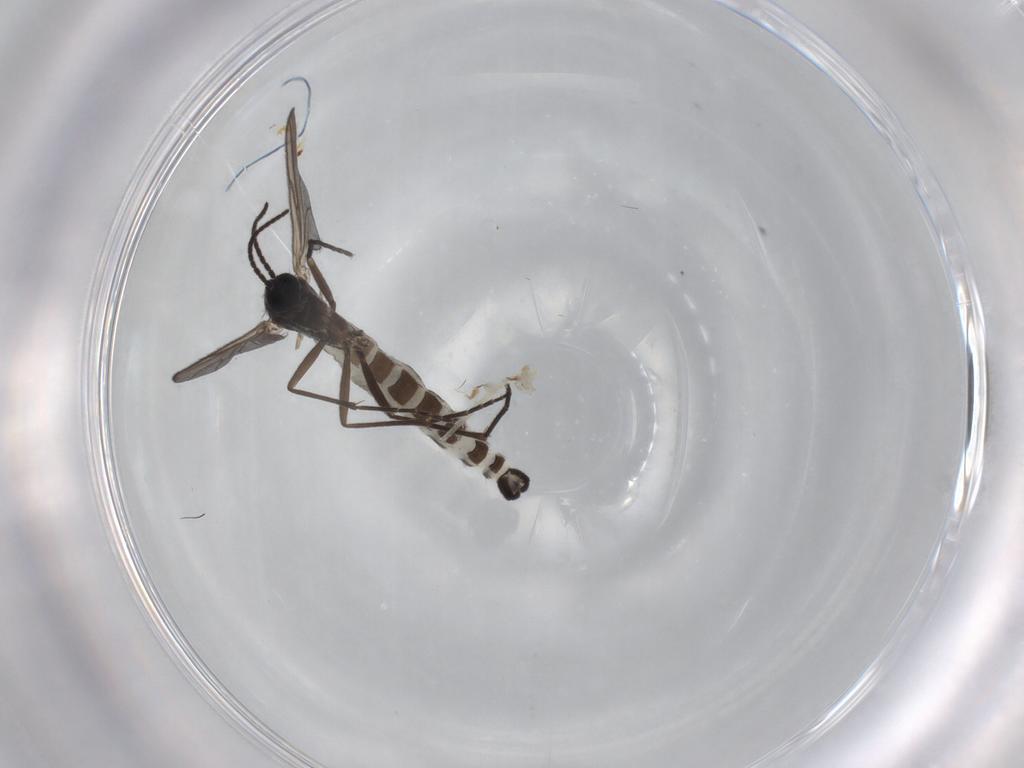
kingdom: Animalia
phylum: Arthropoda
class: Insecta
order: Diptera
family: Sciaridae
